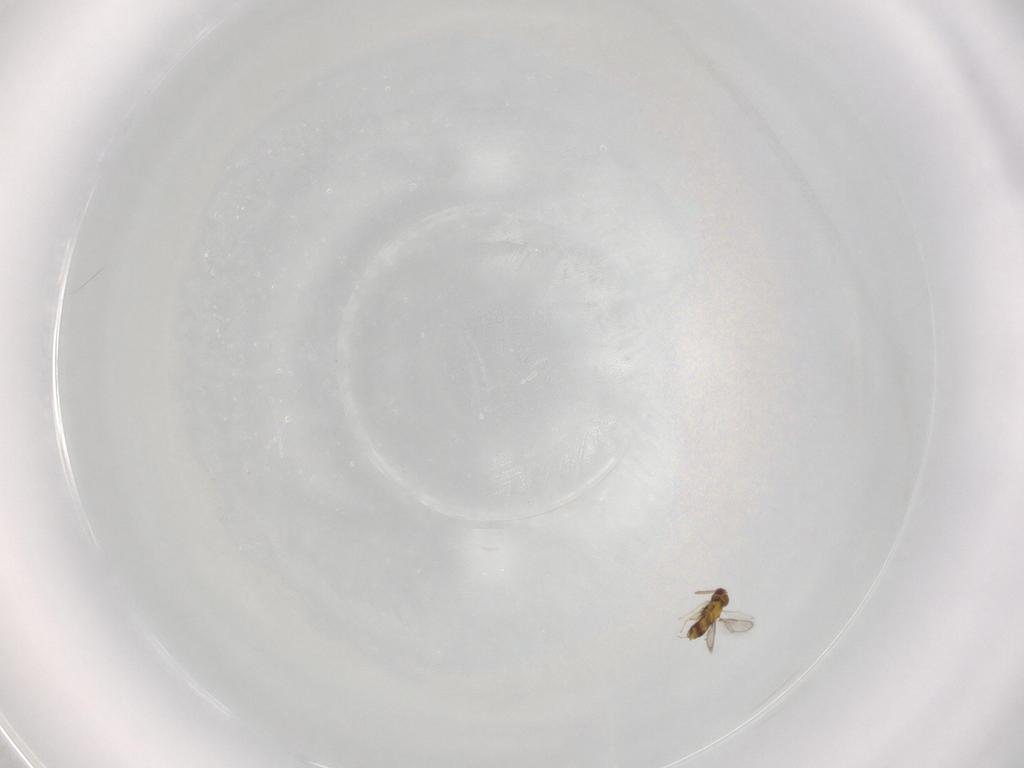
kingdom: Animalia
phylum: Arthropoda
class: Insecta
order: Hymenoptera
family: Aphelinidae
